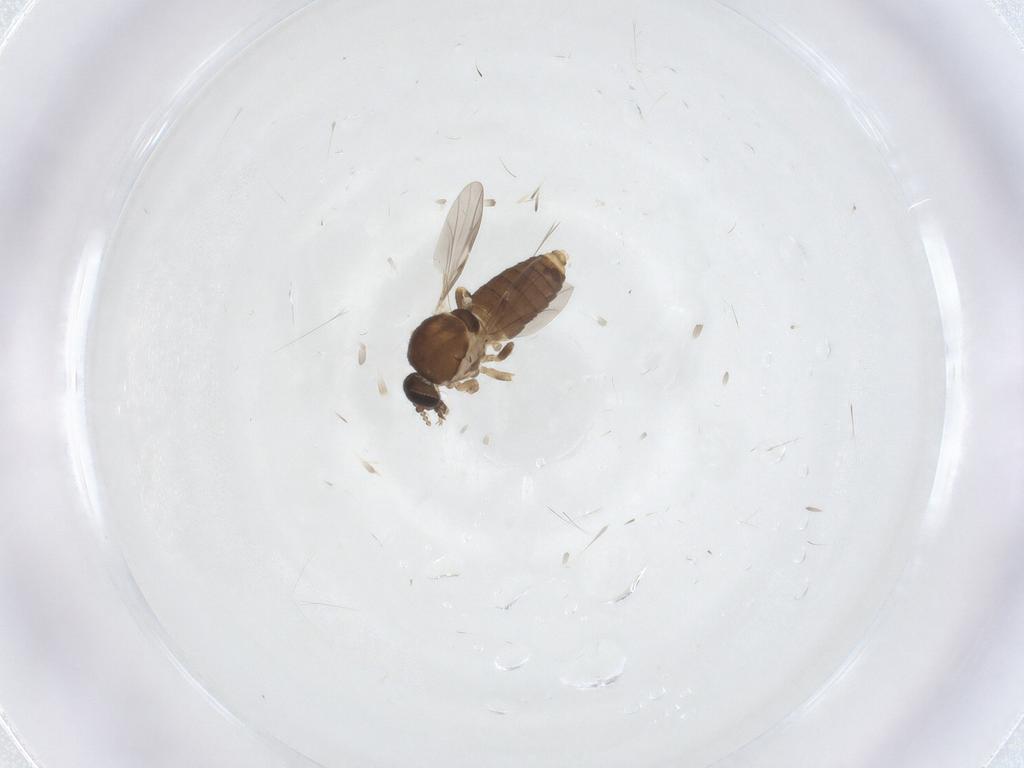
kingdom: Animalia
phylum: Arthropoda
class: Insecta
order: Diptera
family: Ceratopogonidae
